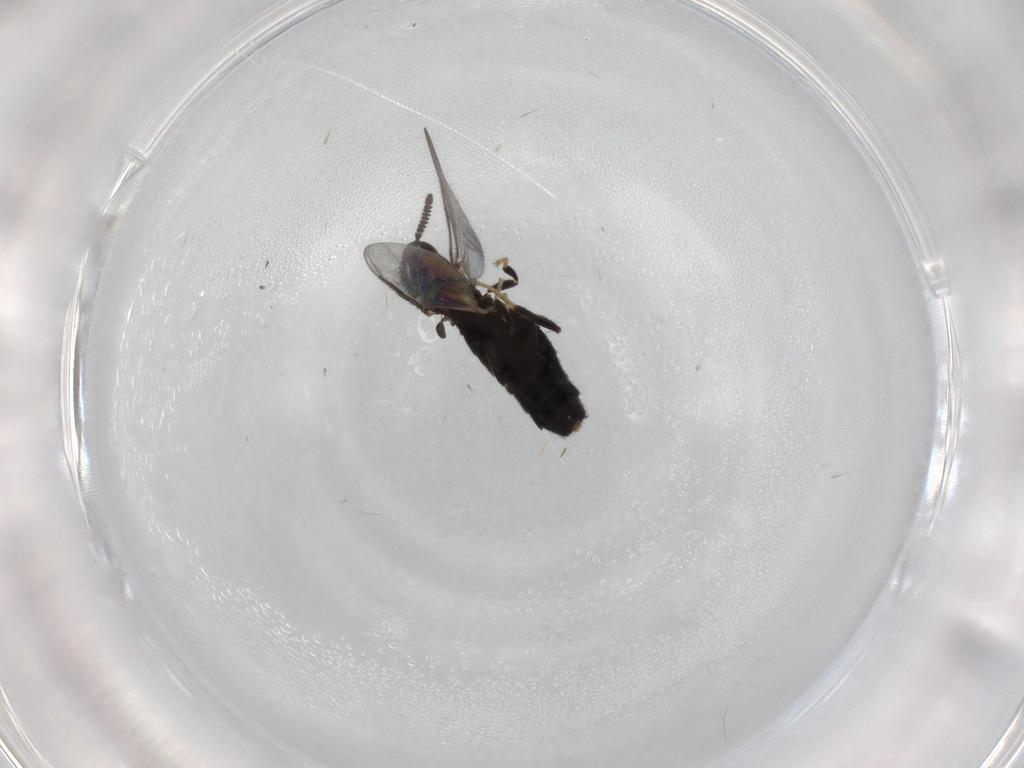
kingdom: Animalia
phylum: Arthropoda
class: Insecta
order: Diptera
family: Scatopsidae
